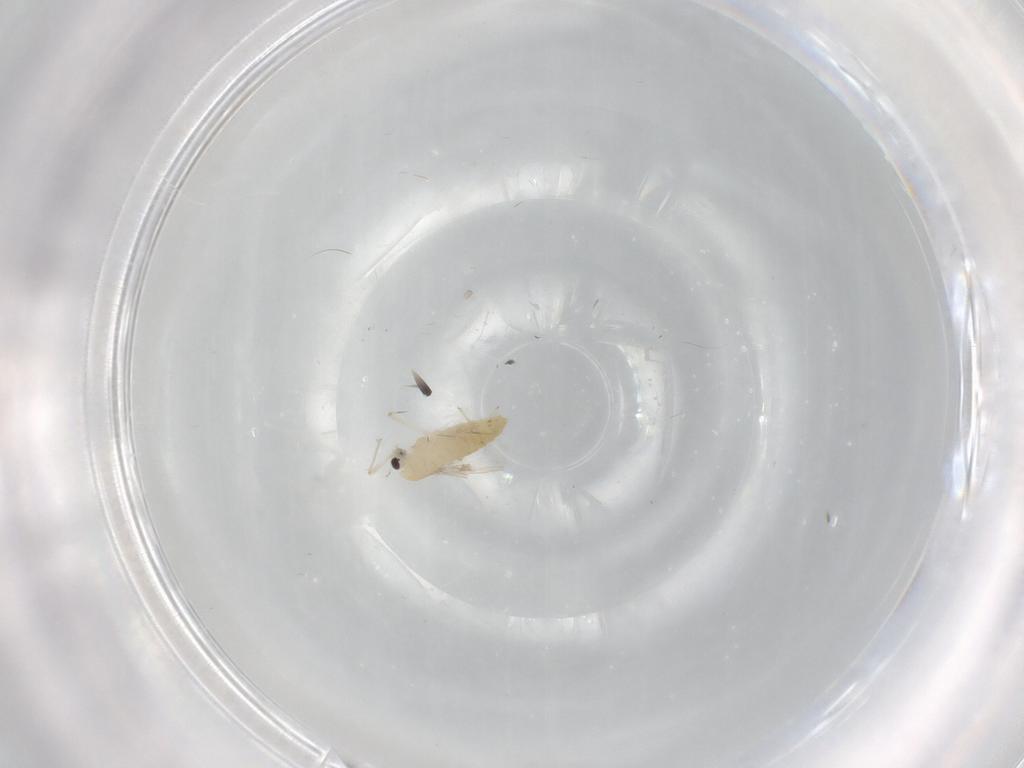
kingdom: Animalia
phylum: Arthropoda
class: Insecta
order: Diptera
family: Chironomidae
